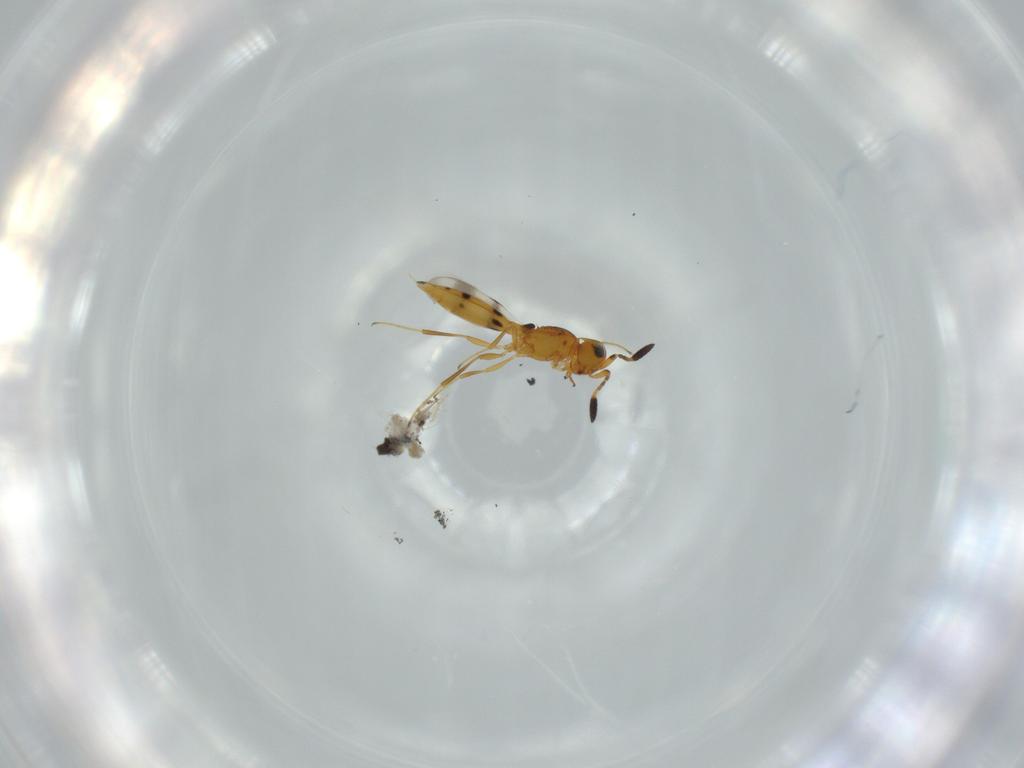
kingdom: Animalia
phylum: Arthropoda
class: Insecta
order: Hymenoptera
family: Scelionidae
